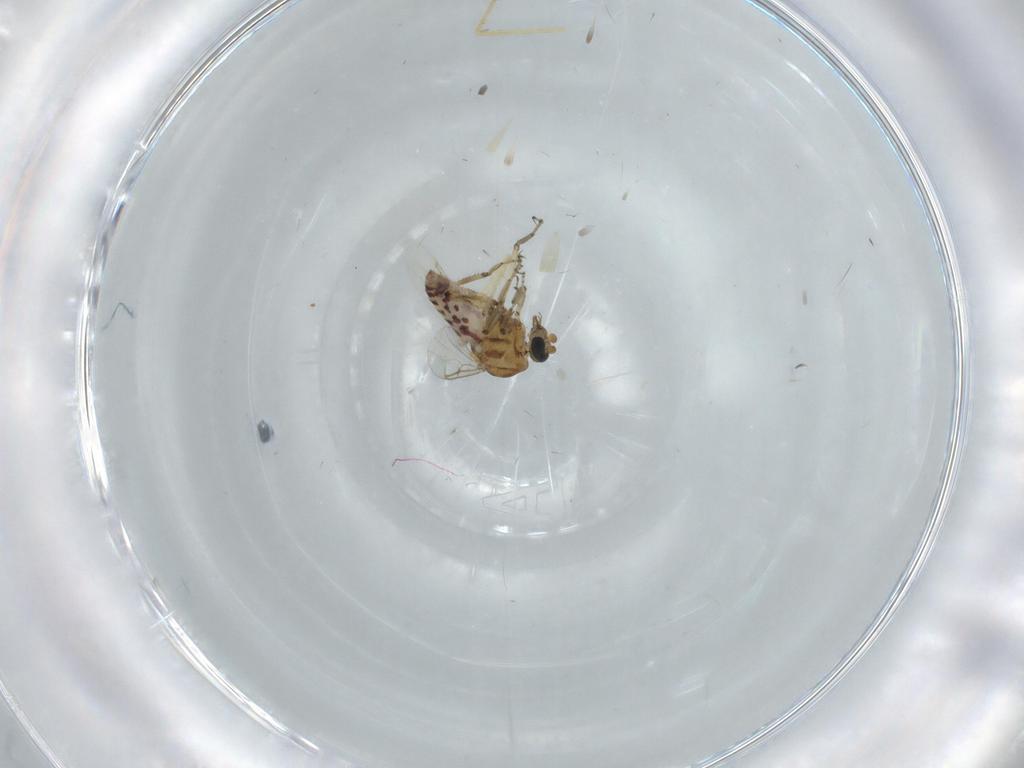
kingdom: Animalia
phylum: Arthropoda
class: Insecta
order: Diptera
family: Ceratopogonidae
